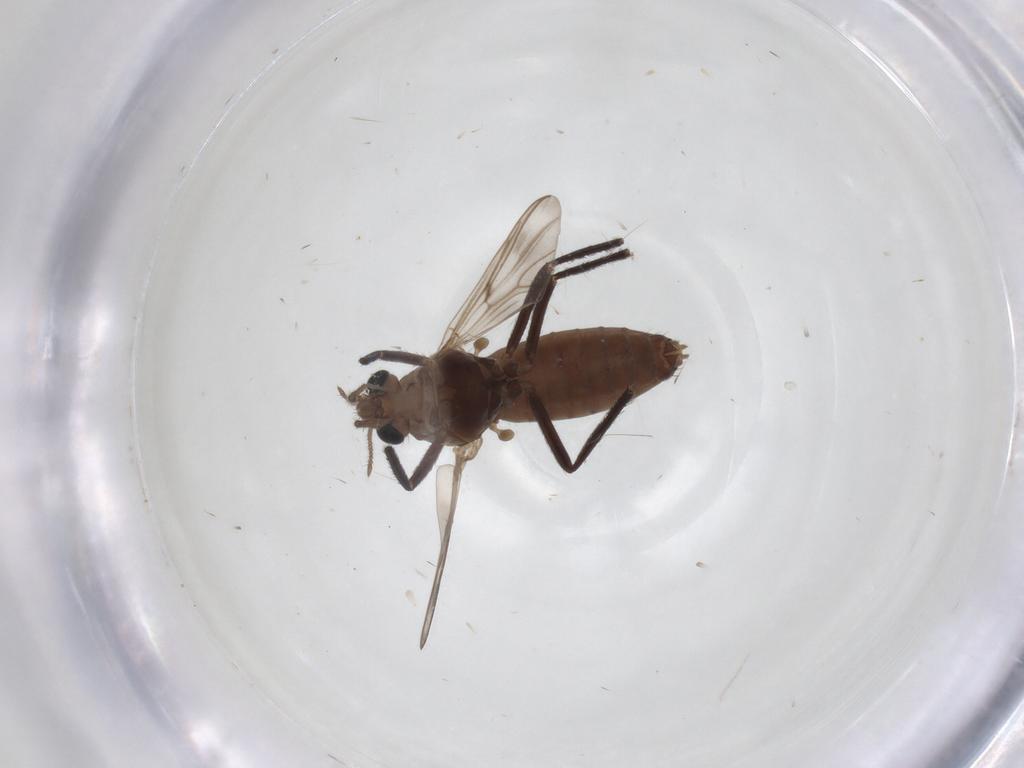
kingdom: Animalia
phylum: Arthropoda
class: Insecta
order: Diptera
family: Chironomidae
